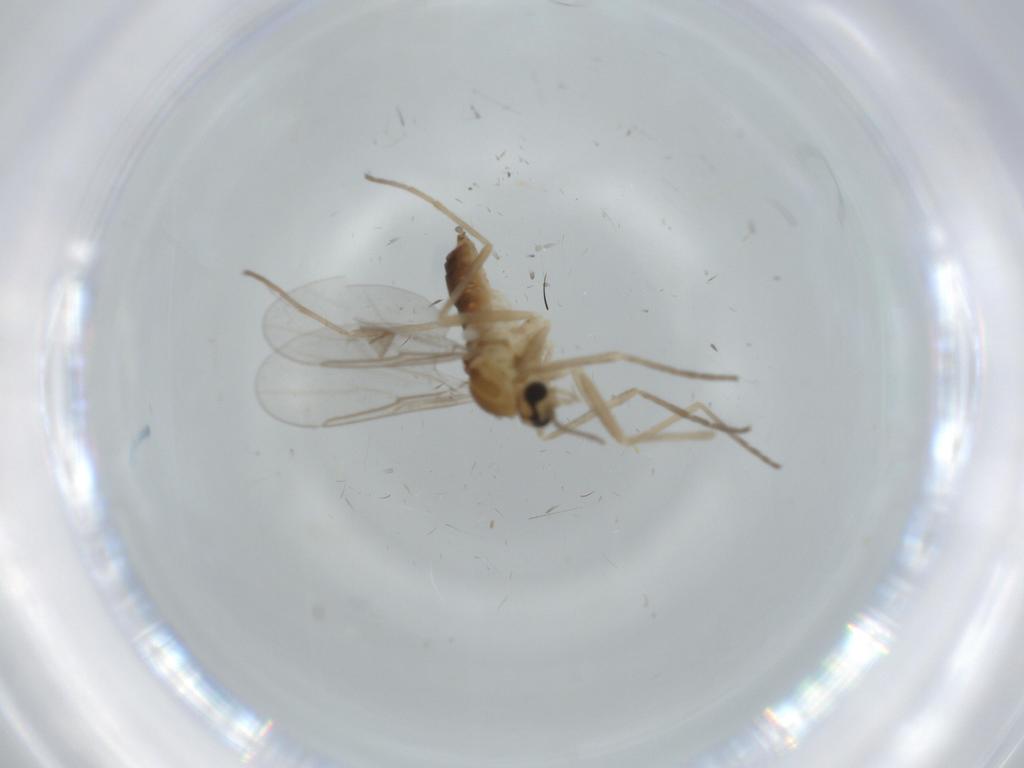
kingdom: Animalia
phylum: Arthropoda
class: Insecta
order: Diptera
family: Cecidomyiidae
